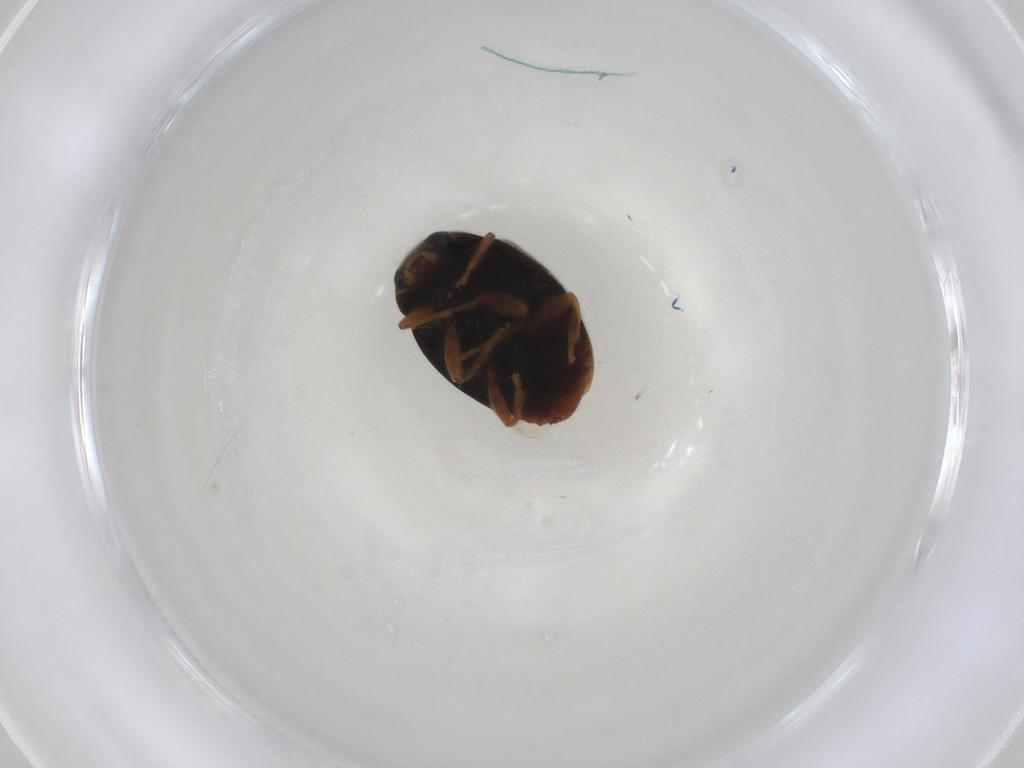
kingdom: Animalia
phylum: Arthropoda
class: Insecta
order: Coleoptera
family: Coccinellidae
